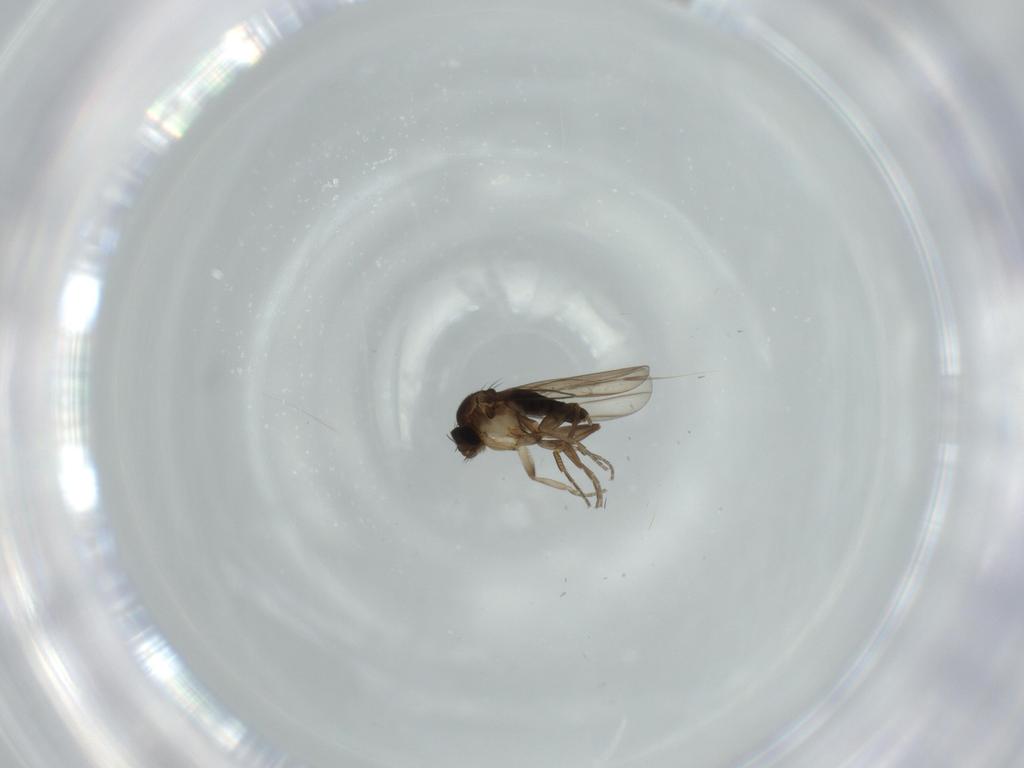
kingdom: Animalia
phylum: Arthropoda
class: Insecta
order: Diptera
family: Phoridae
